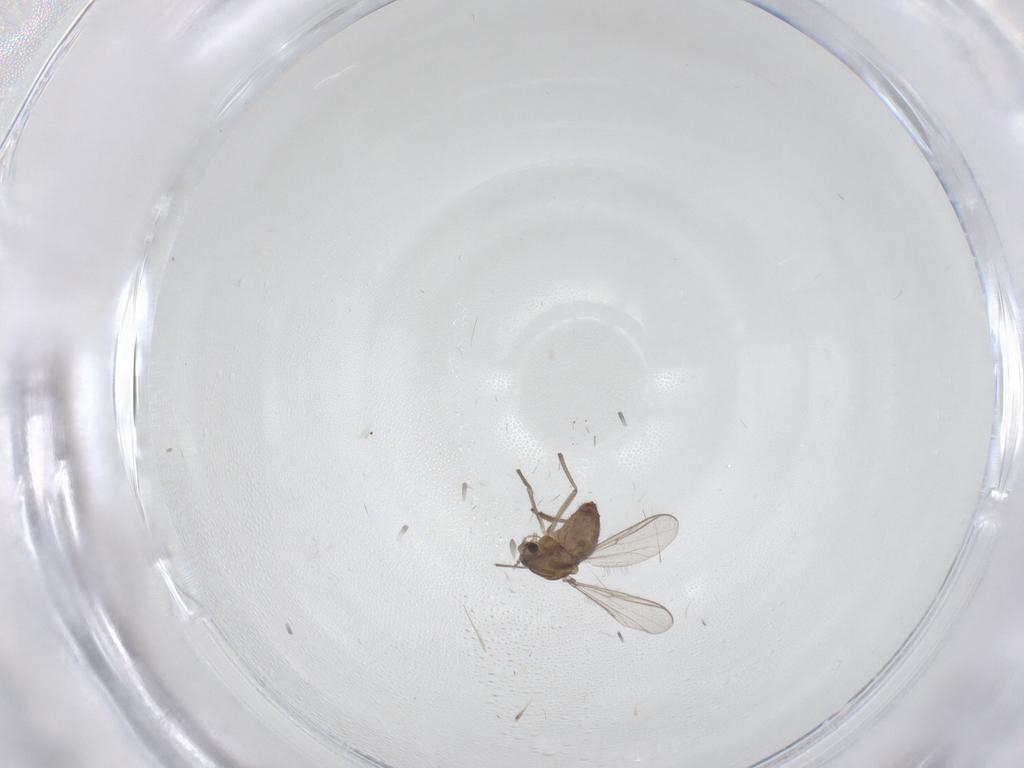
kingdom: Animalia
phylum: Arthropoda
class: Insecta
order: Diptera
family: Chironomidae
